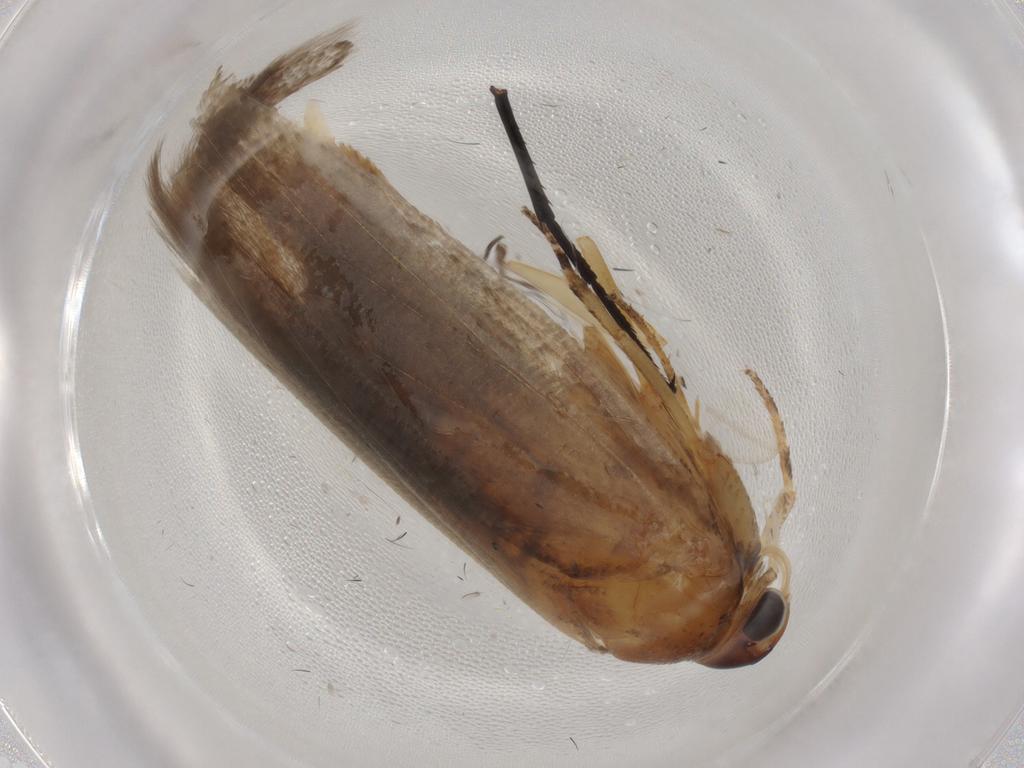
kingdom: Animalia
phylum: Arthropoda
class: Insecta
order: Lepidoptera
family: Gelechiidae
